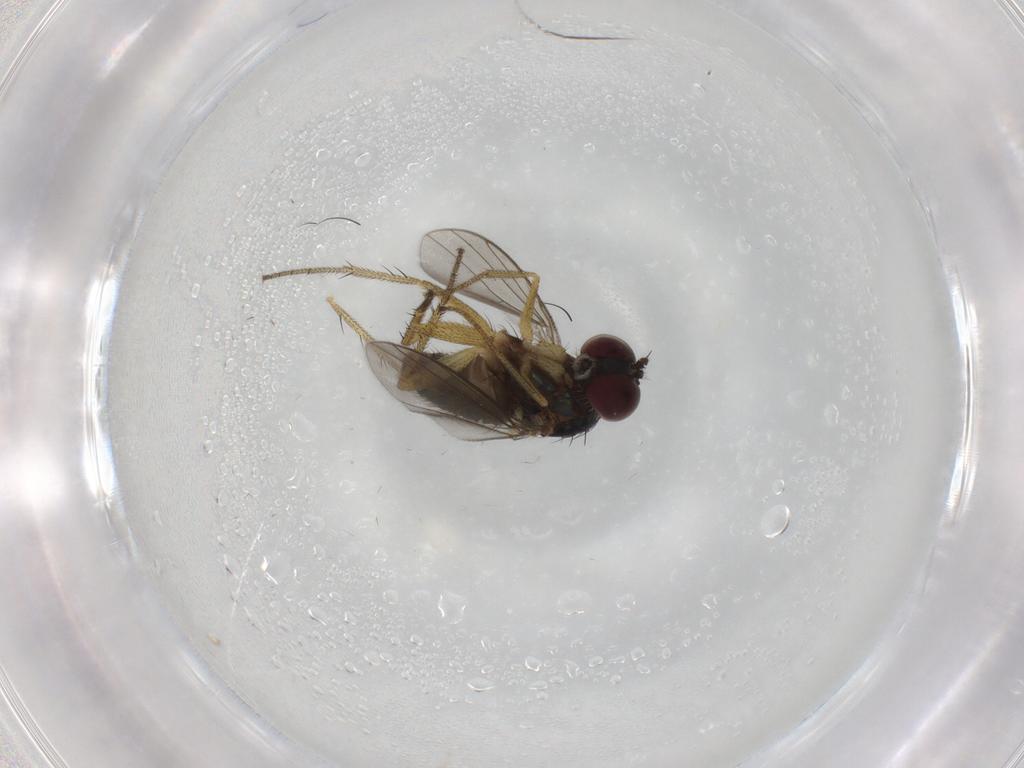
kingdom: Animalia
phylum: Arthropoda
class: Insecta
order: Diptera
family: Dolichopodidae
